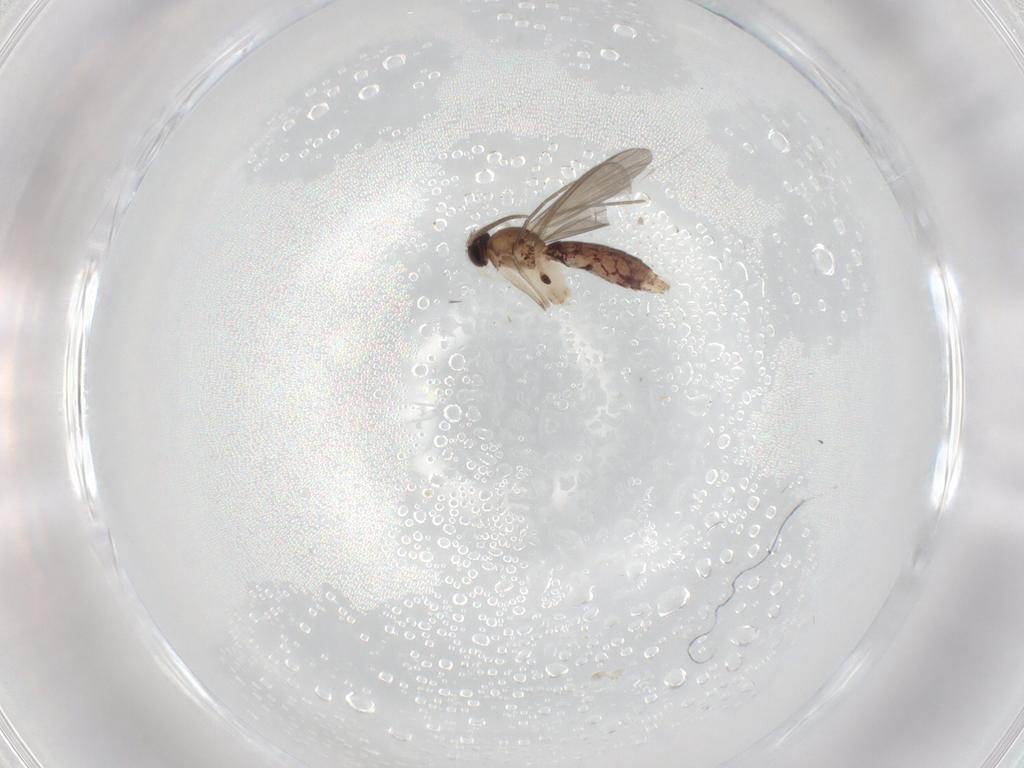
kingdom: Animalia
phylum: Arthropoda
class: Insecta
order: Diptera
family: Mycetophilidae
